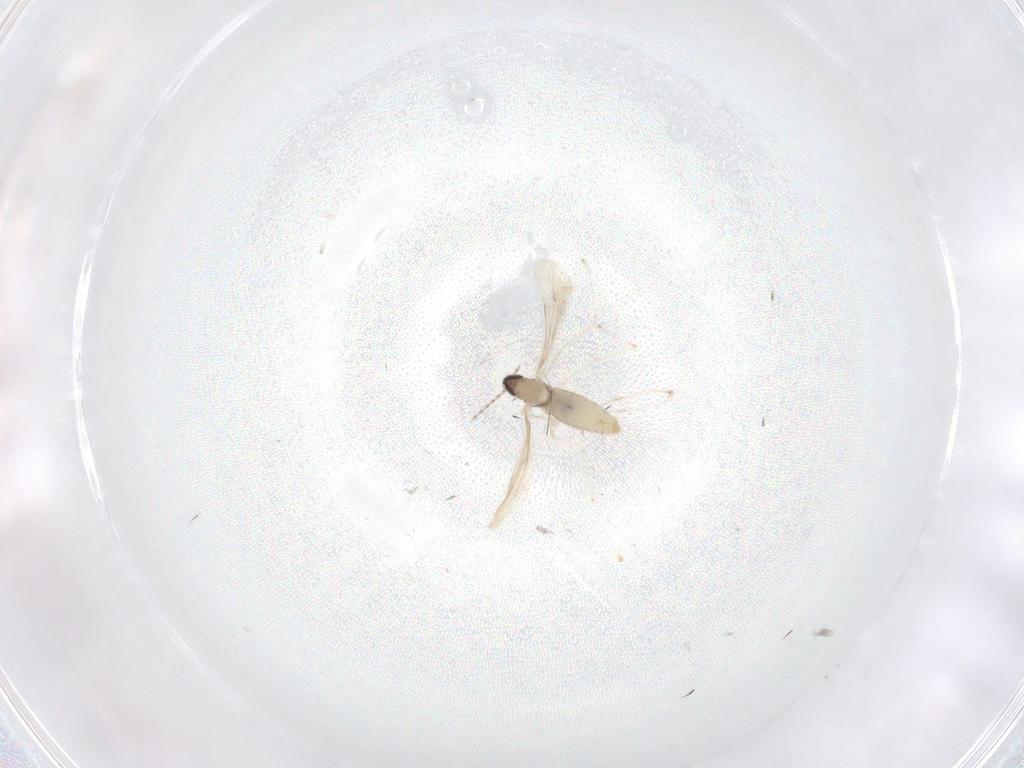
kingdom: Animalia
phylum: Arthropoda
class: Insecta
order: Diptera
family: Cecidomyiidae
